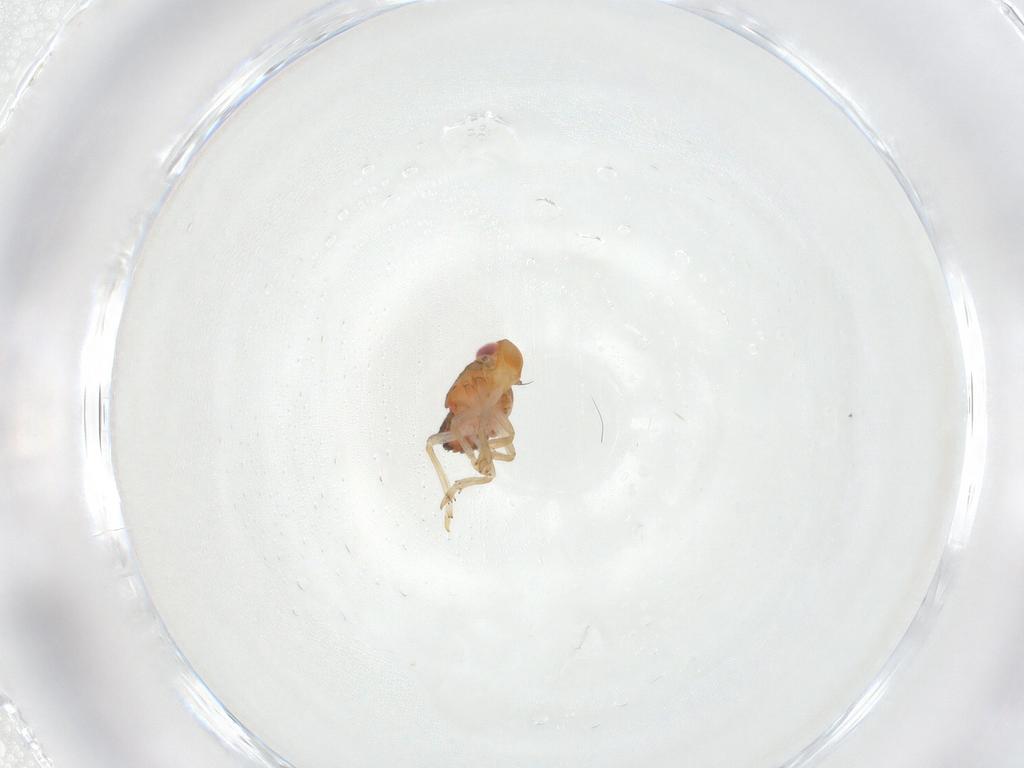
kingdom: Animalia
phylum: Arthropoda
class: Insecta
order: Hemiptera
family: Issidae
